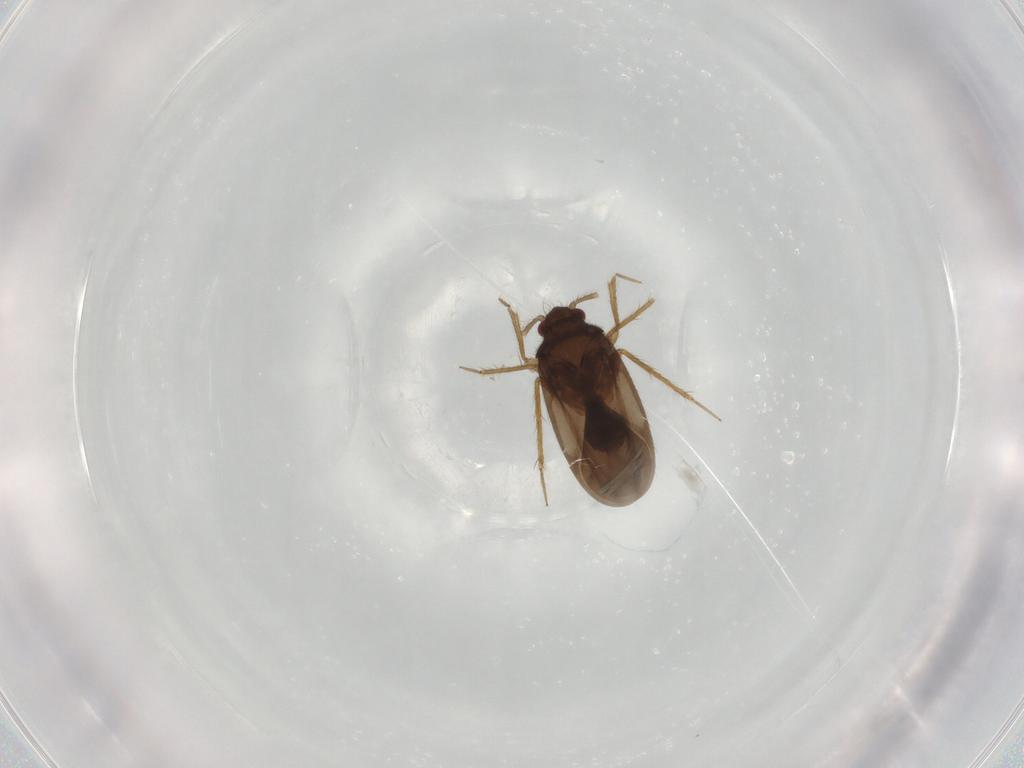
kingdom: Animalia
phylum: Arthropoda
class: Insecta
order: Hemiptera
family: Ceratocombidae
